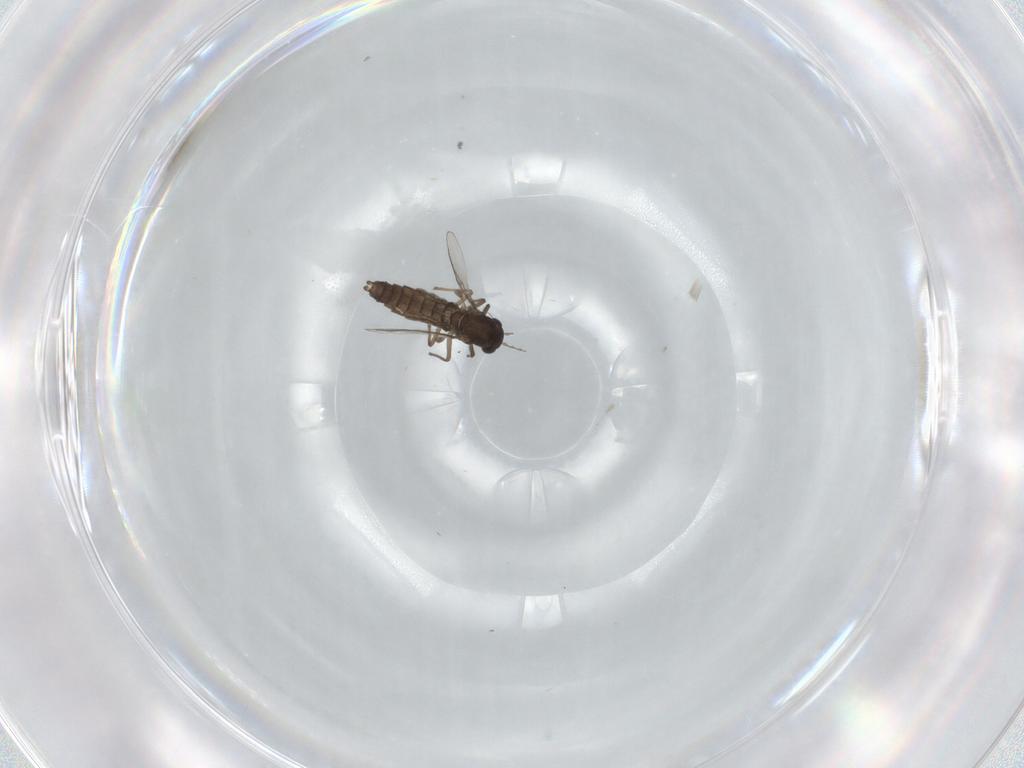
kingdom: Animalia
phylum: Arthropoda
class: Insecta
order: Diptera
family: Chironomidae
